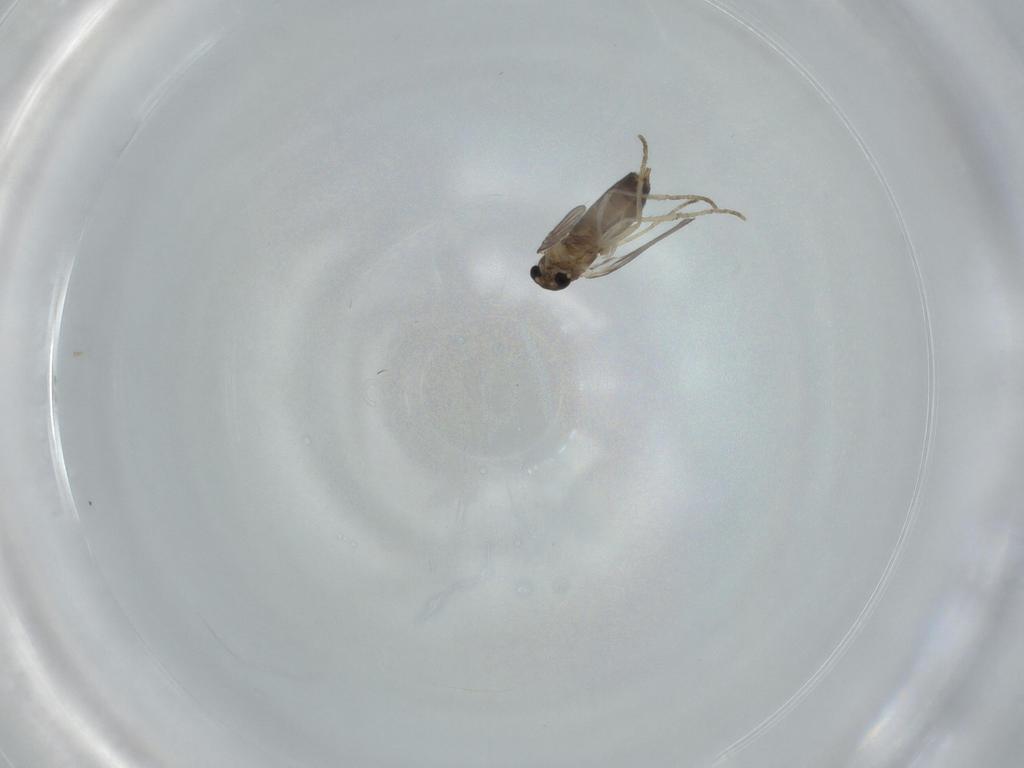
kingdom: Animalia
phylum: Arthropoda
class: Insecta
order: Diptera
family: Psychodidae
